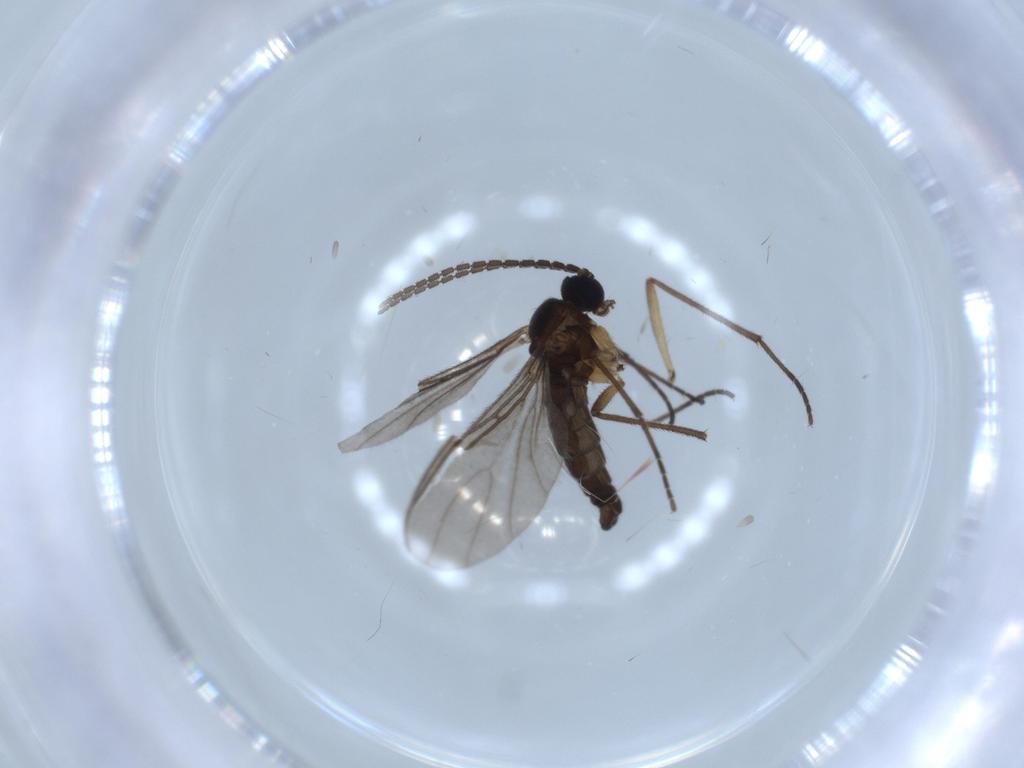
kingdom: Animalia
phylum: Arthropoda
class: Insecta
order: Diptera
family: Sciaridae
